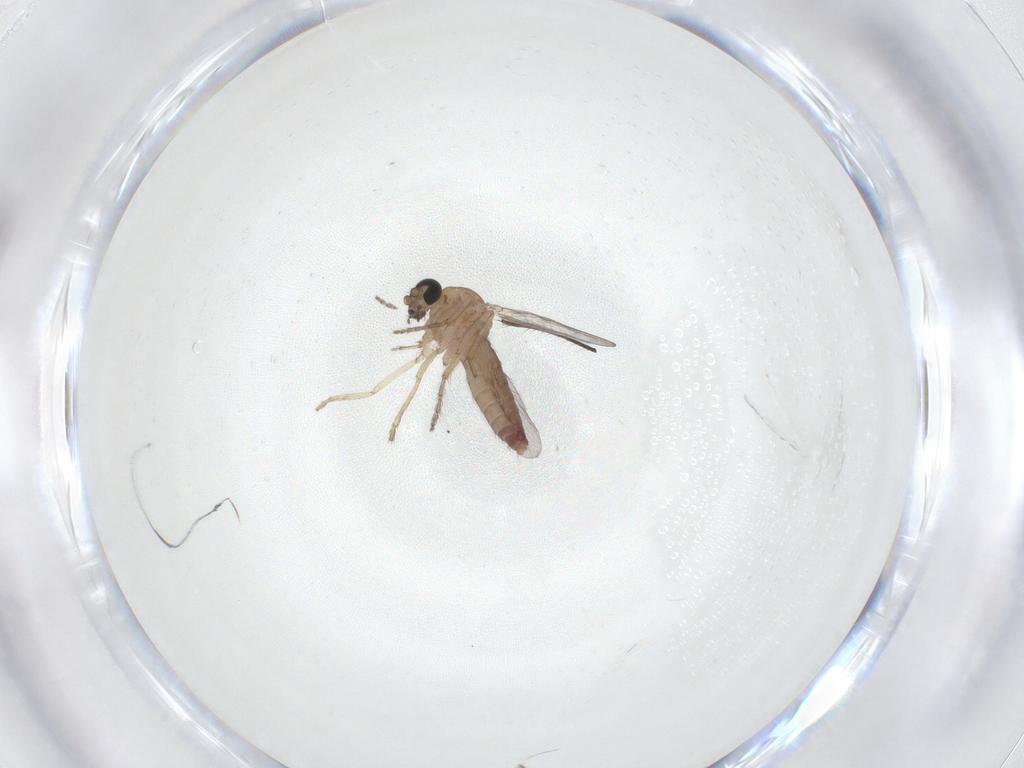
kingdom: Animalia
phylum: Arthropoda
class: Insecta
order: Diptera
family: Ceratopogonidae
